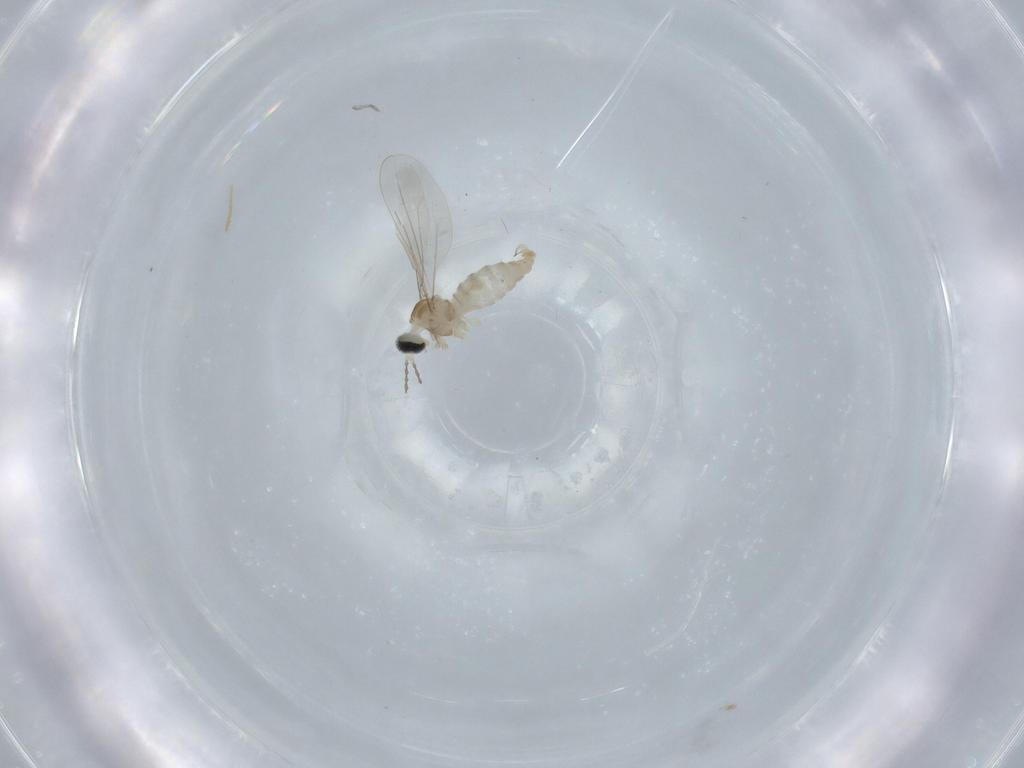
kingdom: Animalia
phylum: Arthropoda
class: Insecta
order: Diptera
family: Cecidomyiidae
